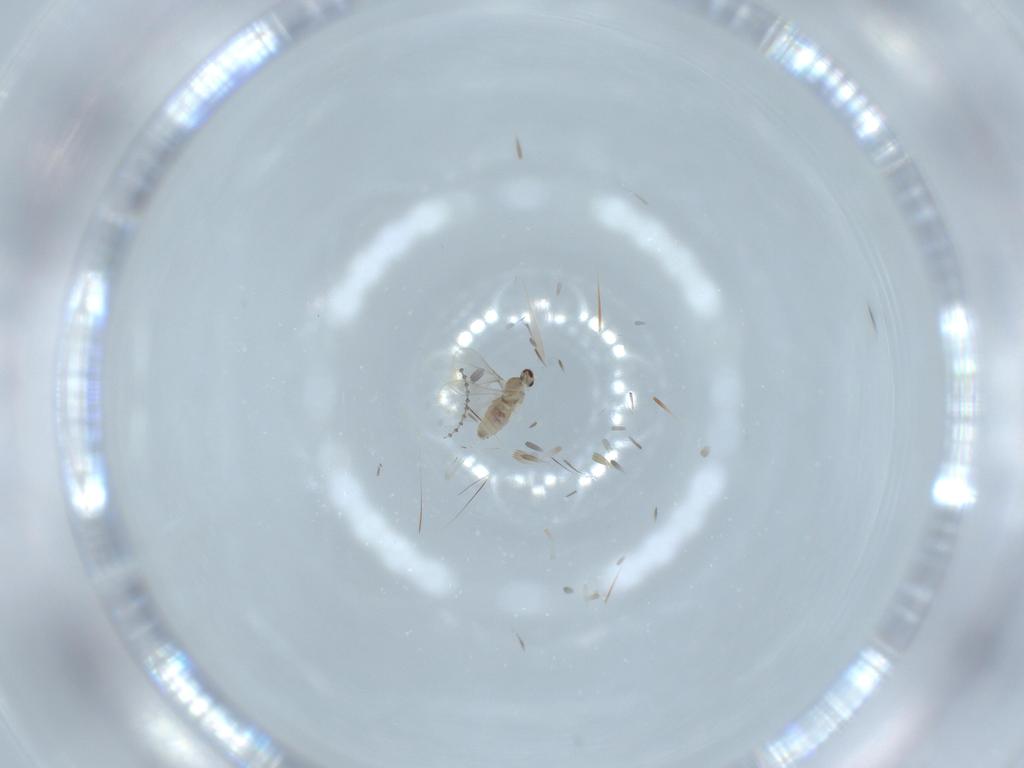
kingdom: Animalia
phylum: Arthropoda
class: Insecta
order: Diptera
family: Cecidomyiidae
